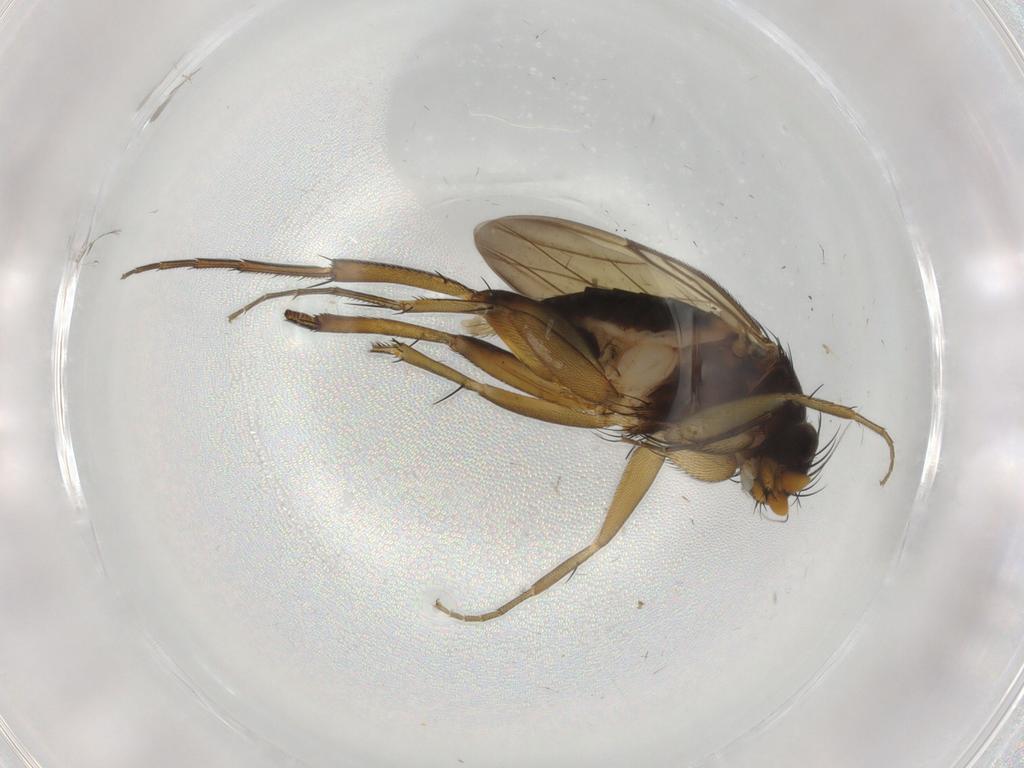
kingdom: Animalia
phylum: Arthropoda
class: Insecta
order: Diptera
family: Phoridae
